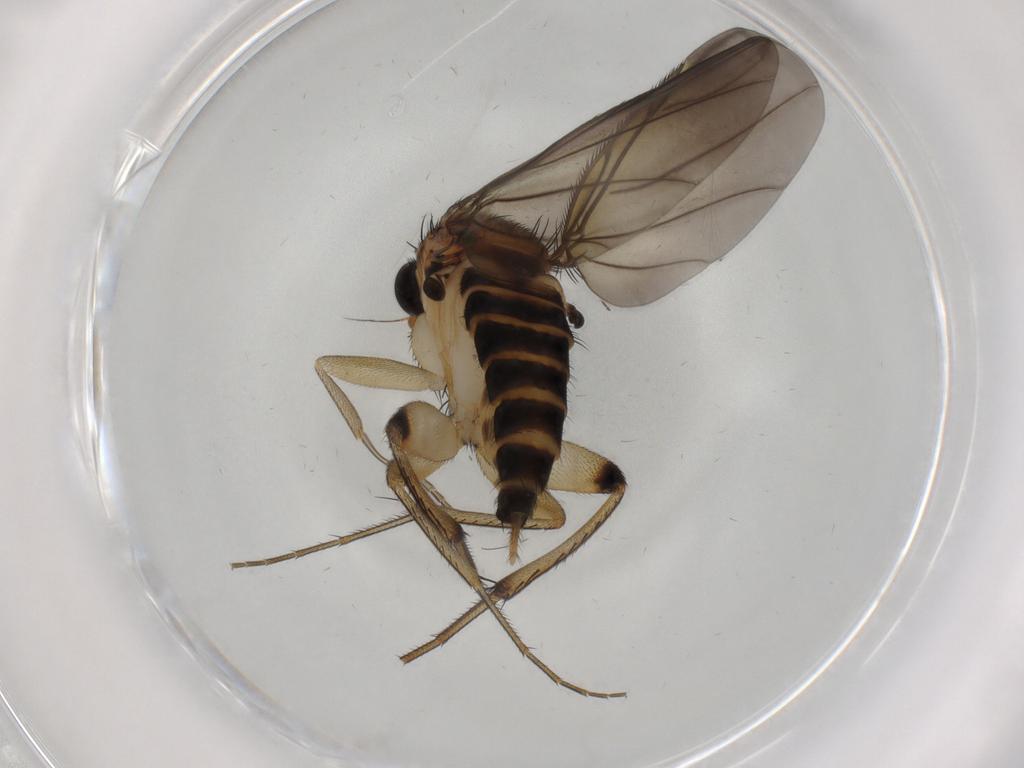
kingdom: Animalia
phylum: Arthropoda
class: Insecta
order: Diptera
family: Phoridae
